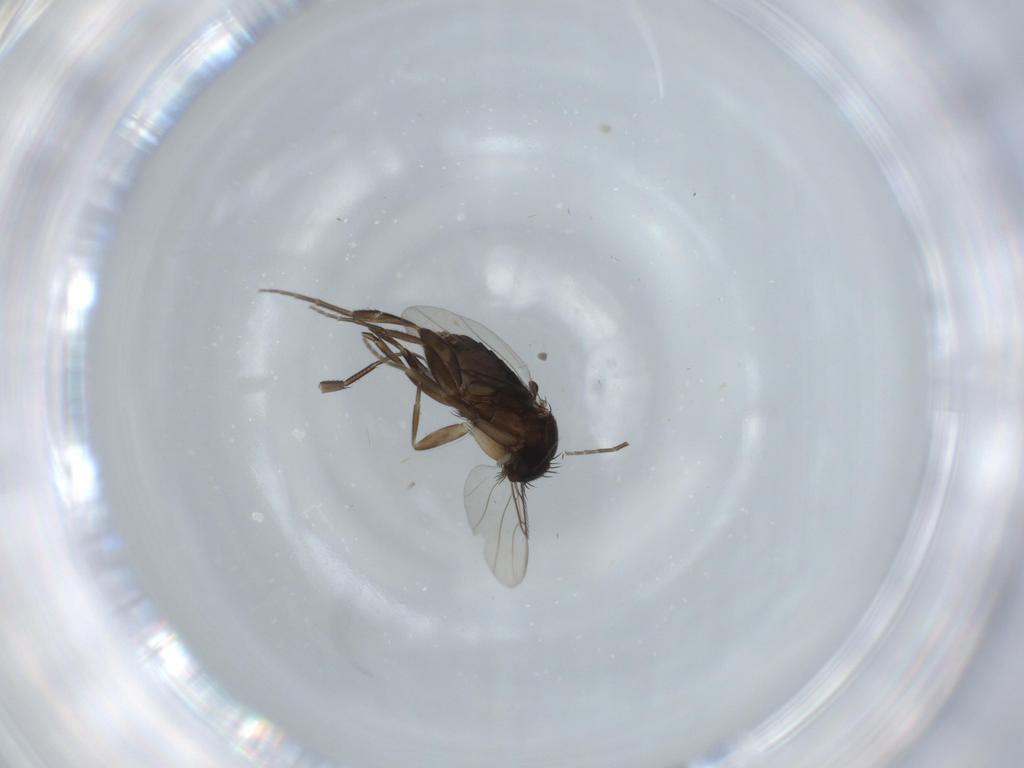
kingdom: Animalia
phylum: Arthropoda
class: Insecta
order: Diptera
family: Phoridae
